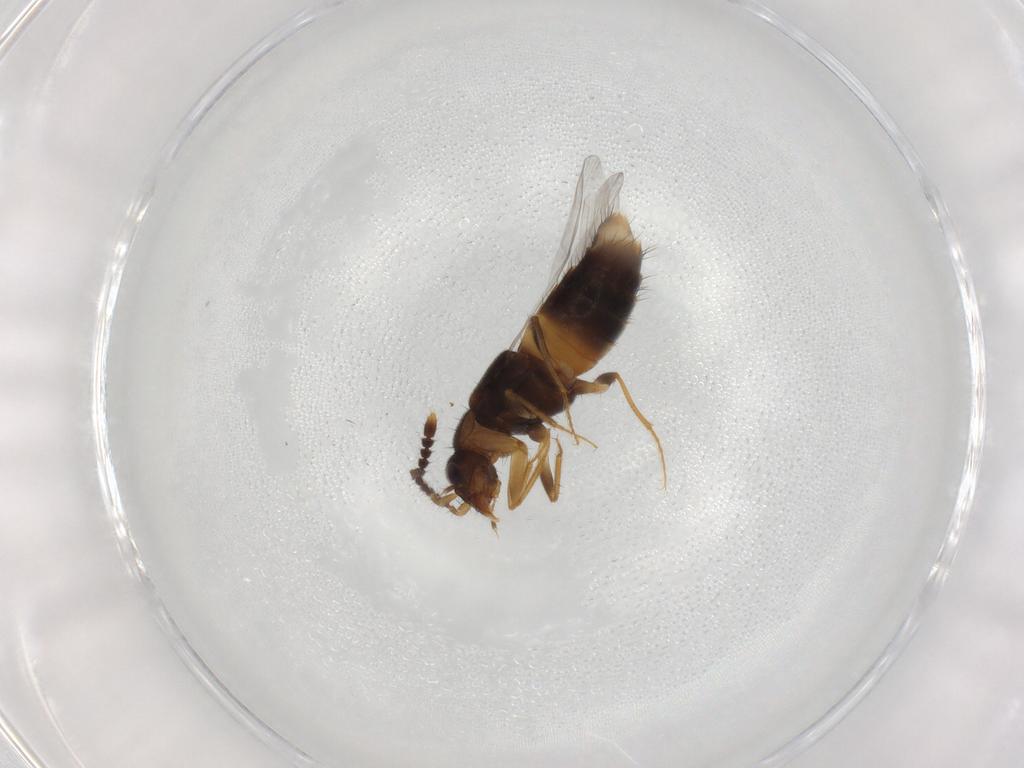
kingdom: Animalia
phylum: Arthropoda
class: Insecta
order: Coleoptera
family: Staphylinidae
